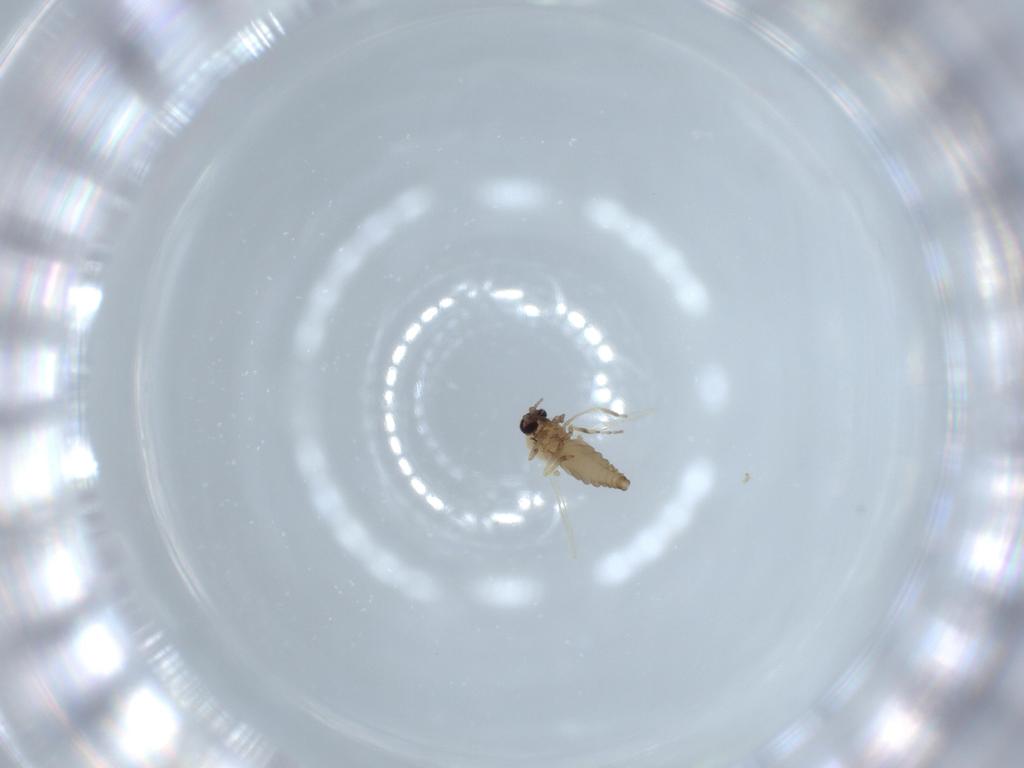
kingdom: Animalia
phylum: Arthropoda
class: Insecta
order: Diptera
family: Ceratopogonidae
